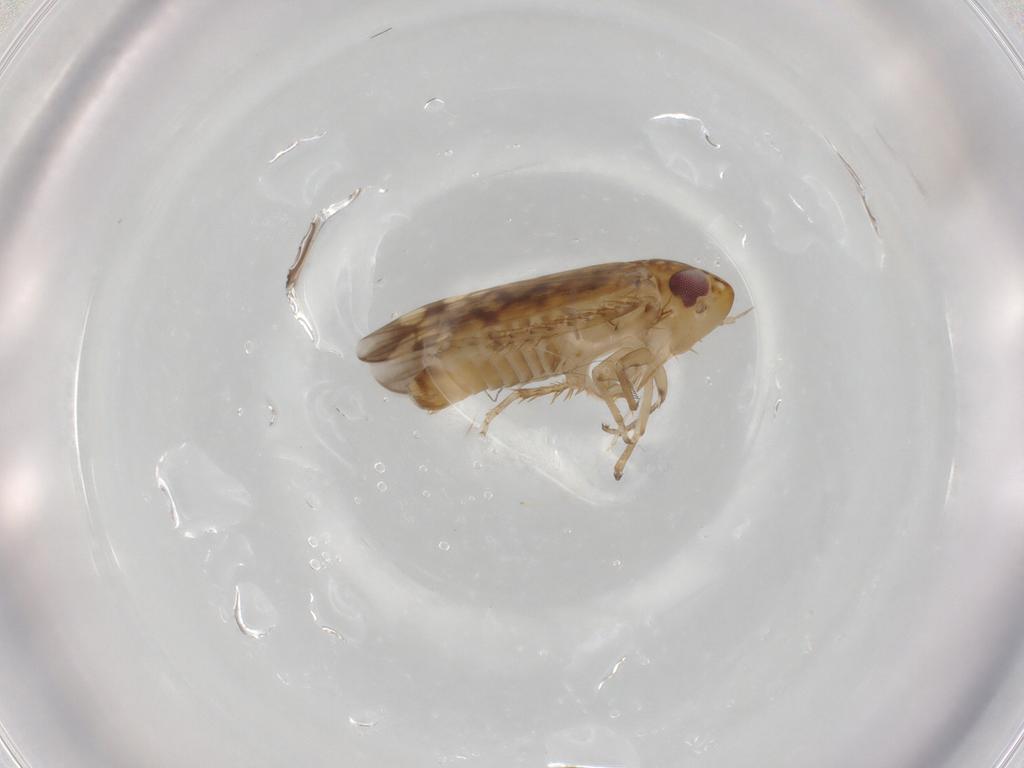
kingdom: Animalia
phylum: Arthropoda
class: Insecta
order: Hemiptera
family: Cicadellidae
